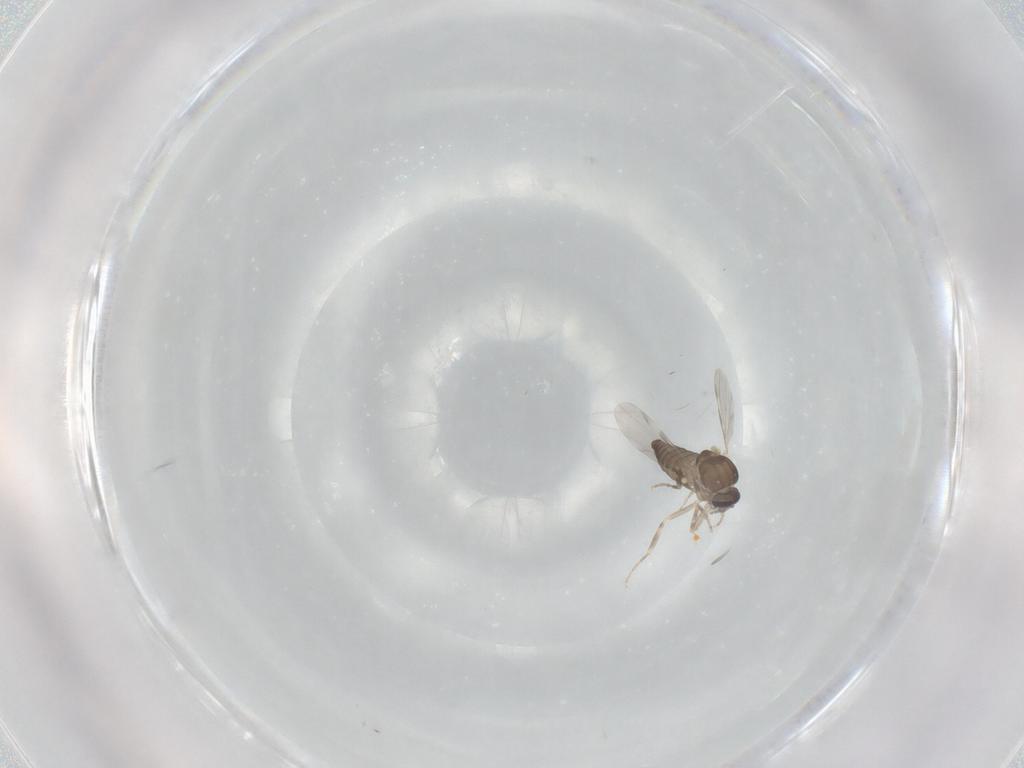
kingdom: Animalia
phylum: Arthropoda
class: Insecta
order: Diptera
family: Ceratopogonidae
